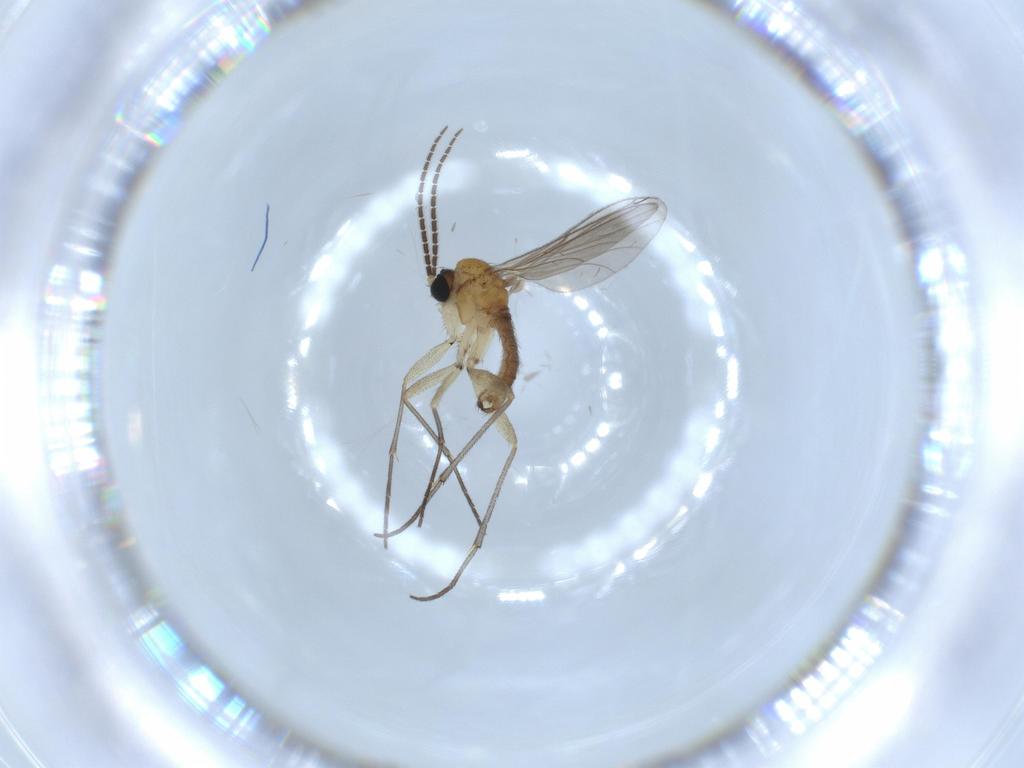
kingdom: Animalia
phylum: Arthropoda
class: Insecta
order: Diptera
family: Sciaridae
